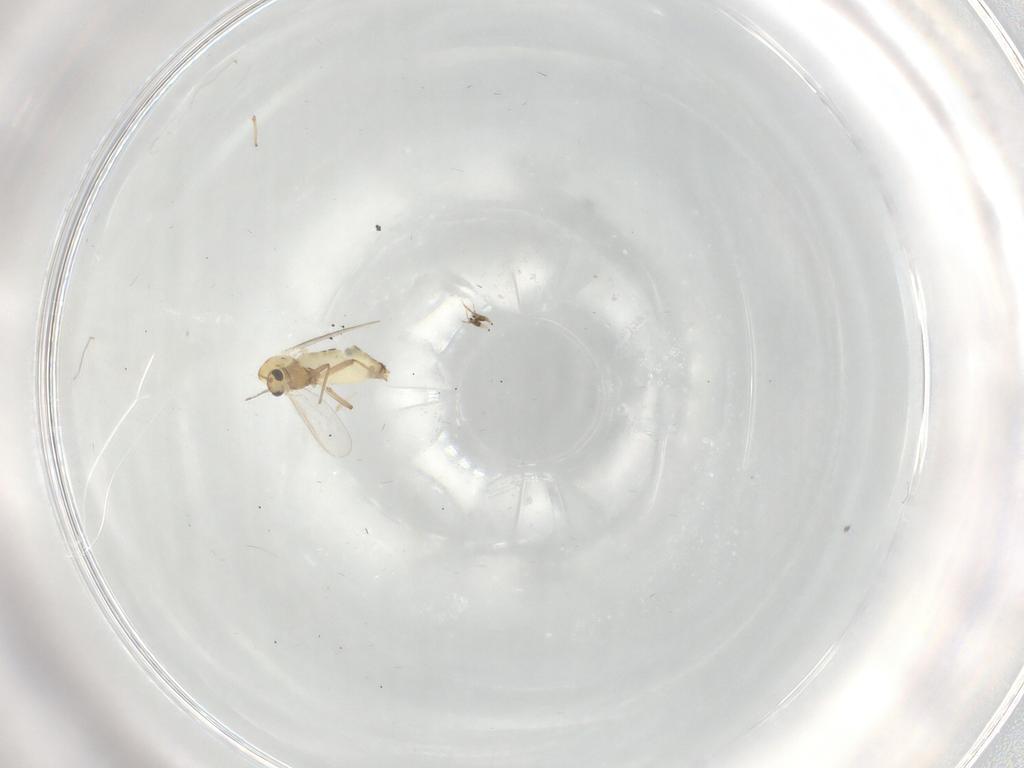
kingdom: Animalia
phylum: Arthropoda
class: Insecta
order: Diptera
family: Chironomidae
